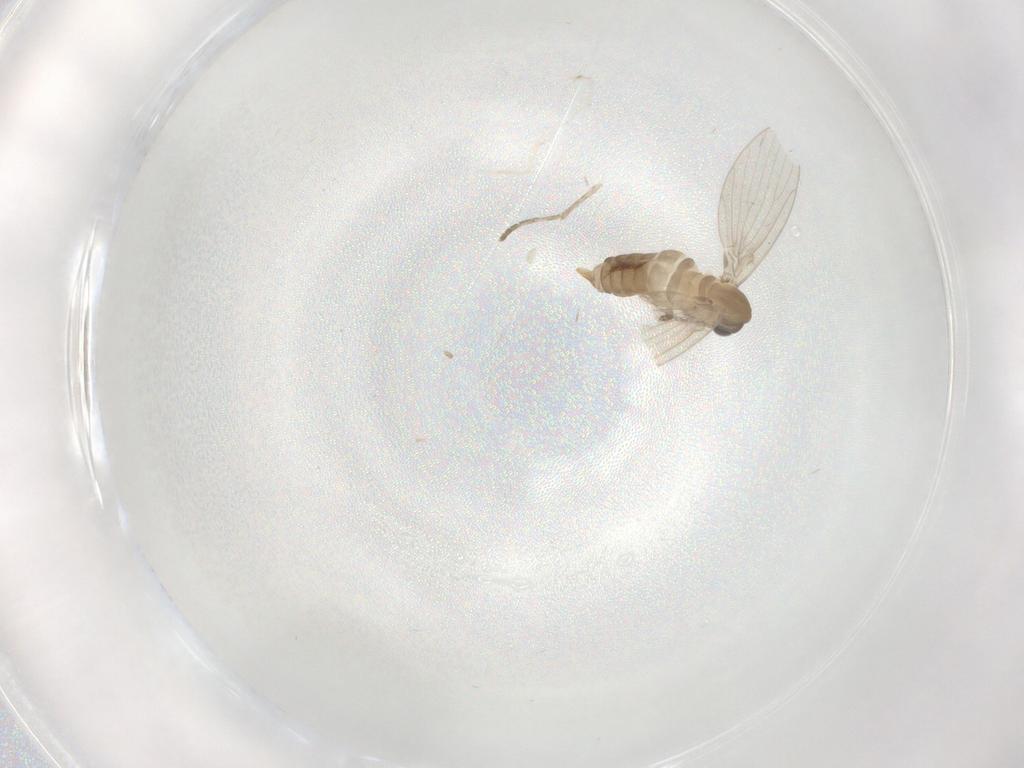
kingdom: Animalia
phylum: Arthropoda
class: Insecta
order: Diptera
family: Cecidomyiidae
